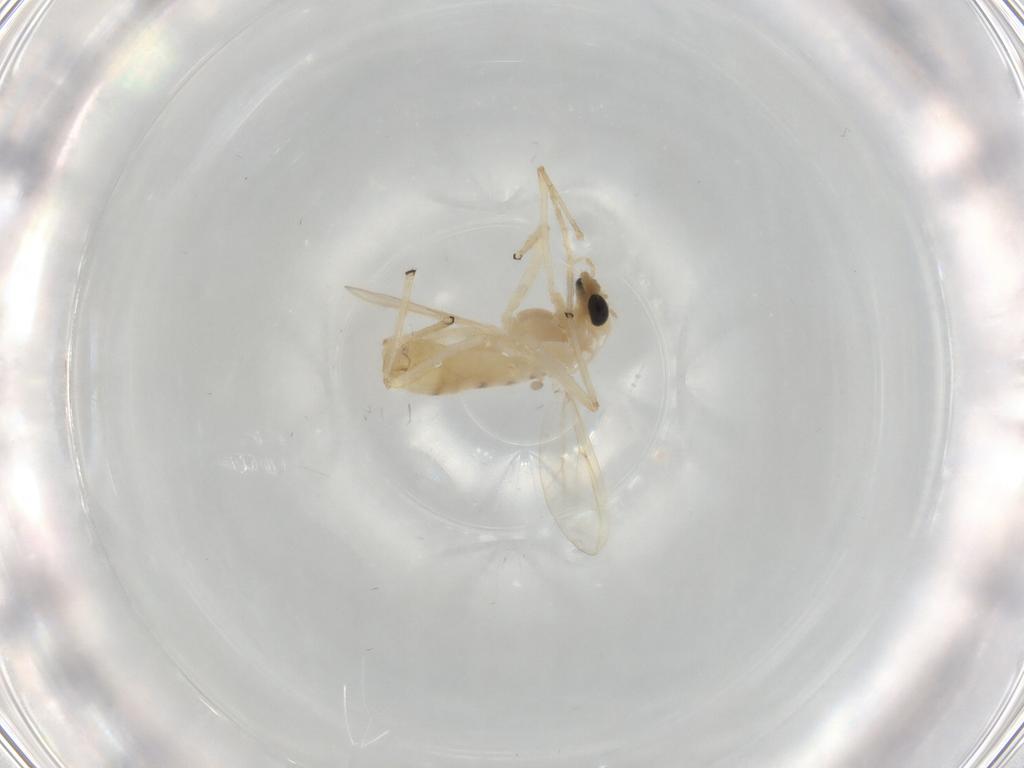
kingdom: Animalia
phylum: Arthropoda
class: Insecta
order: Diptera
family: Chironomidae
